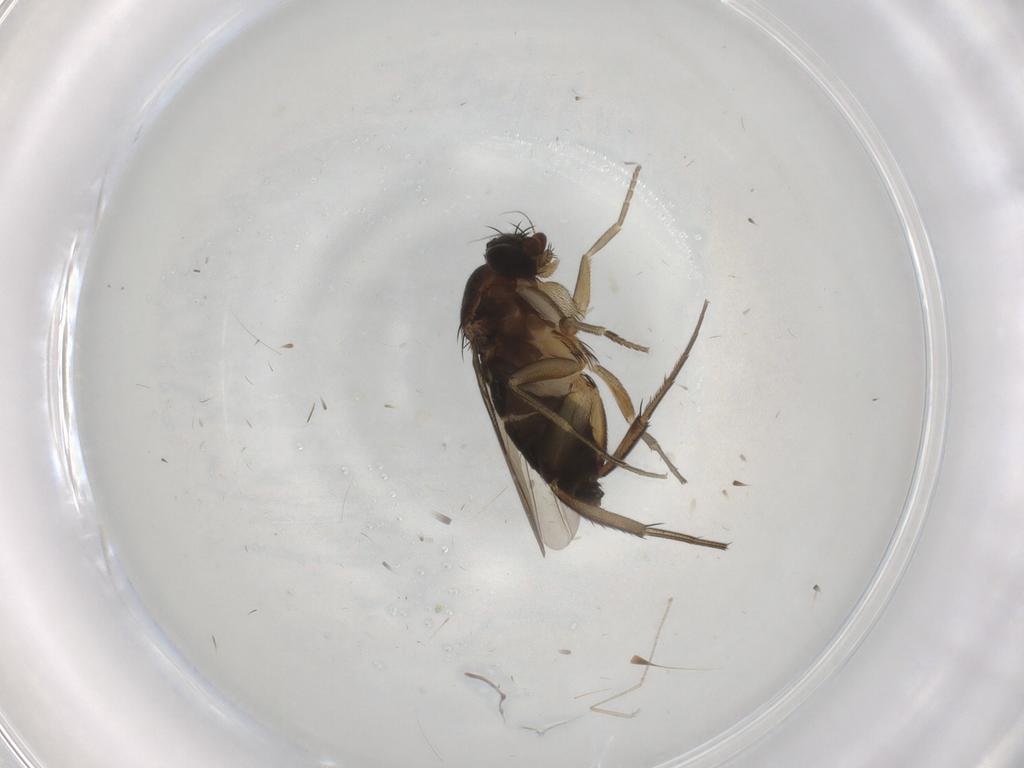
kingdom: Animalia
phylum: Arthropoda
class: Insecta
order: Diptera
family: Phoridae
